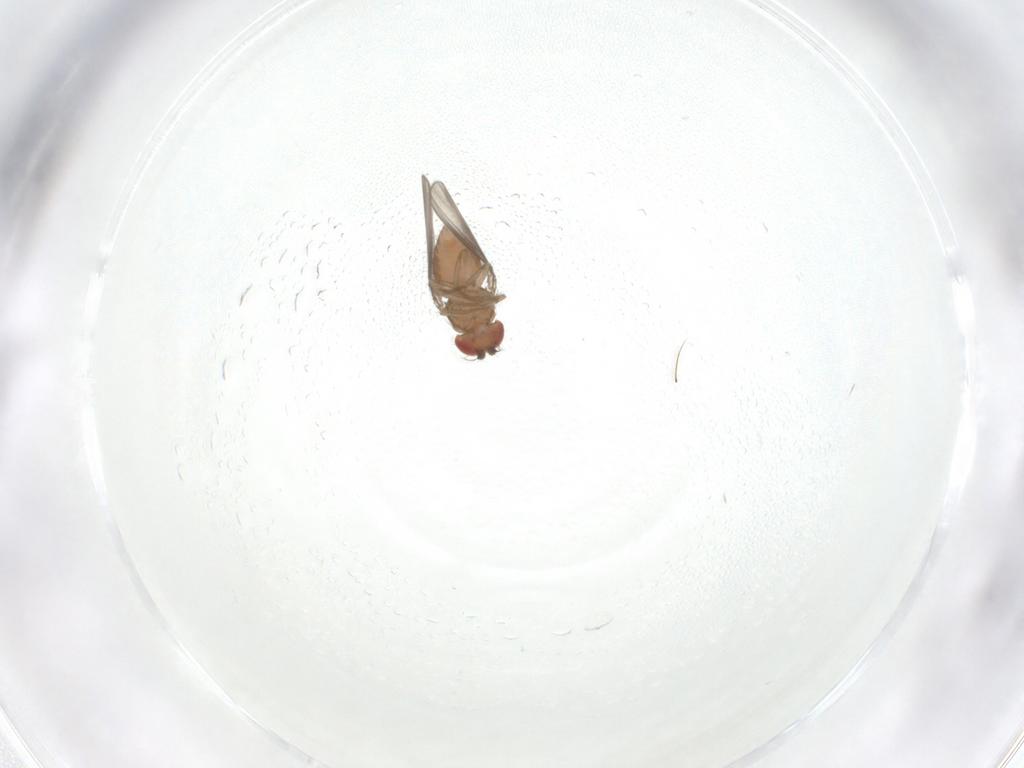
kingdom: Animalia
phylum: Arthropoda
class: Insecta
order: Diptera
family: Drosophilidae
